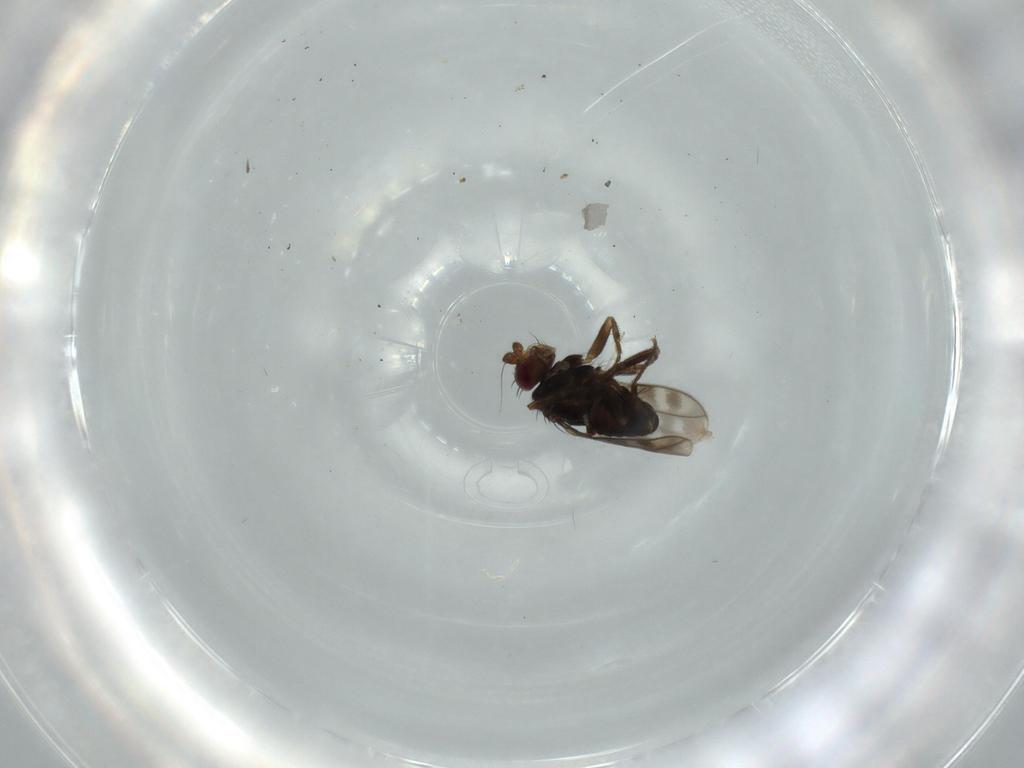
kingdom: Animalia
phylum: Arthropoda
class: Insecta
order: Diptera
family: Sphaeroceridae
